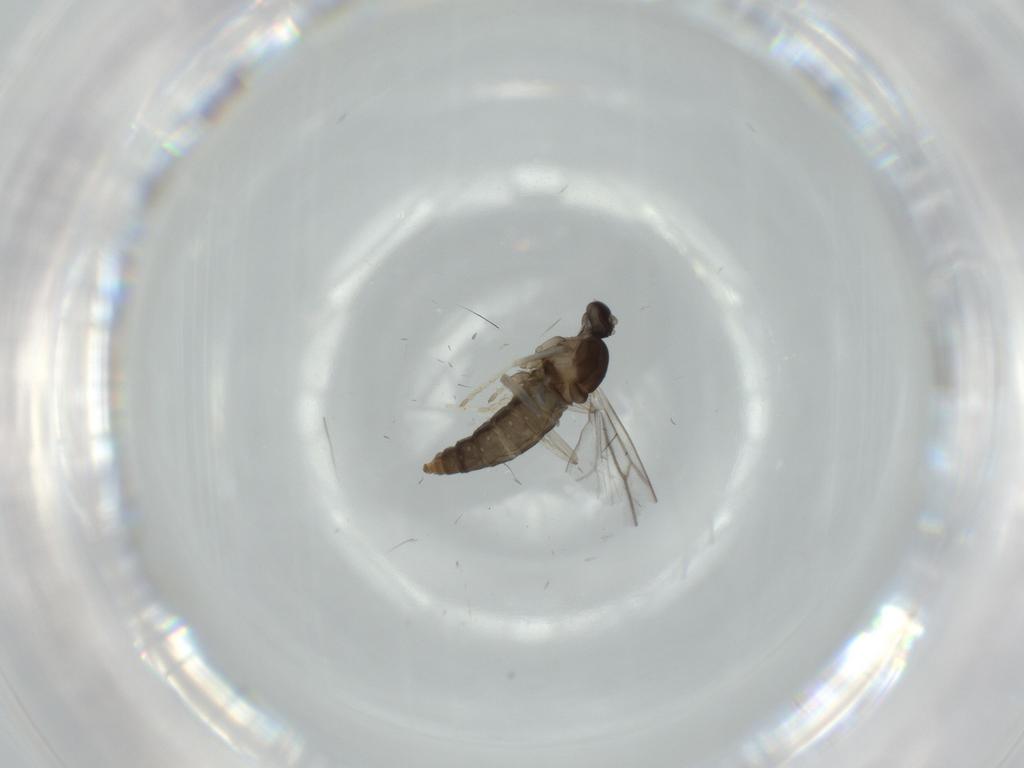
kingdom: Animalia
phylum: Arthropoda
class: Insecta
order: Diptera
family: Cecidomyiidae
